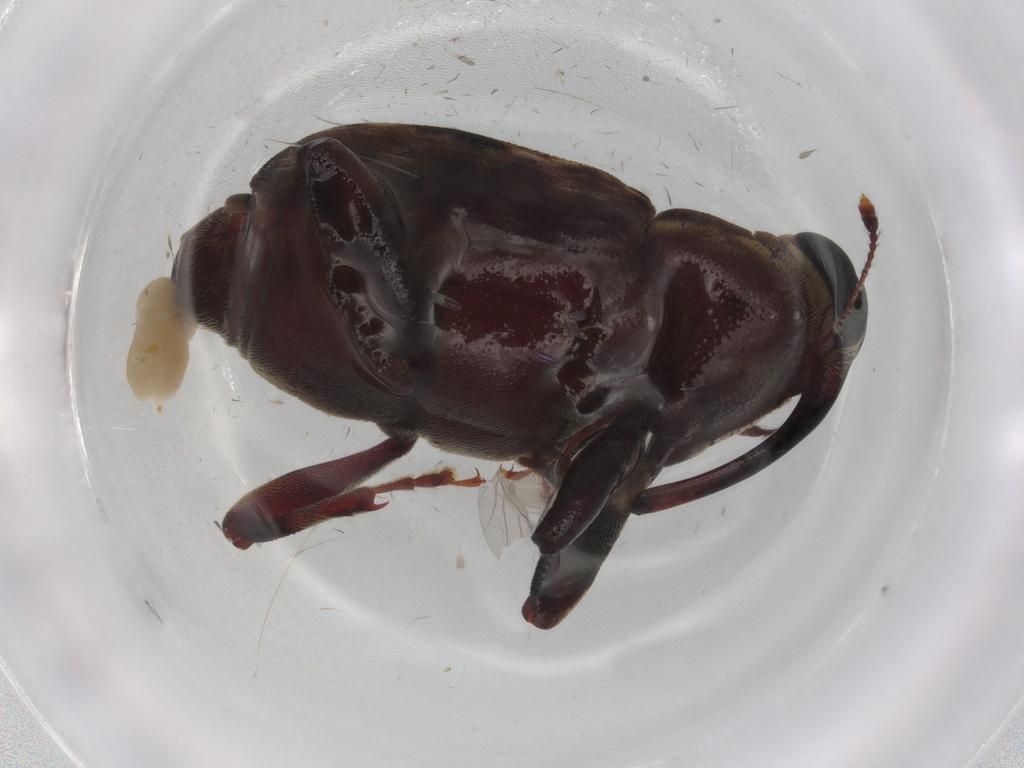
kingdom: Animalia
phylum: Arthropoda
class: Insecta
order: Coleoptera
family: Curculionidae
